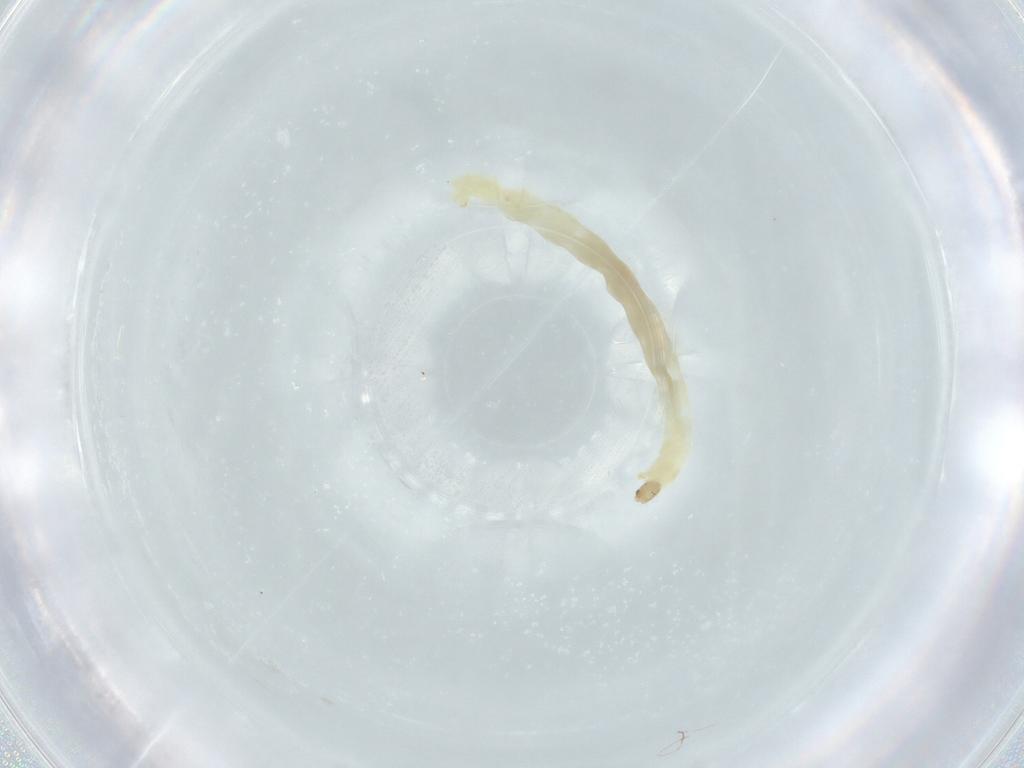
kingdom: Animalia
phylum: Arthropoda
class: Insecta
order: Diptera
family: Chironomidae
